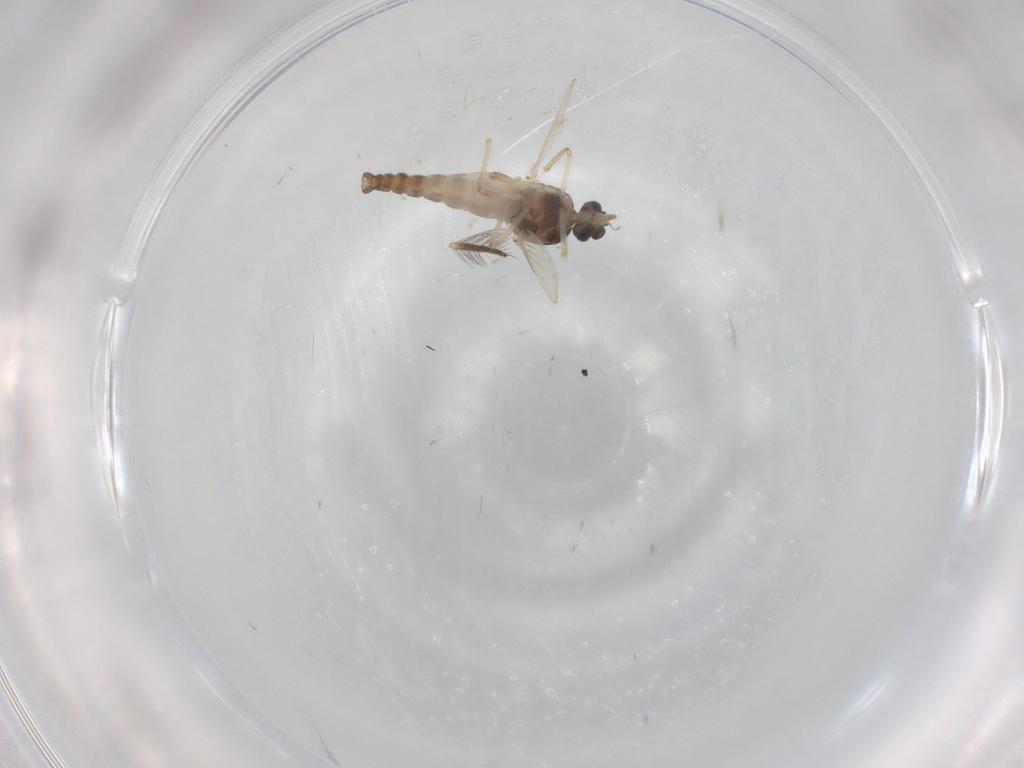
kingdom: Animalia
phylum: Arthropoda
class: Insecta
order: Diptera
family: Ceratopogonidae
